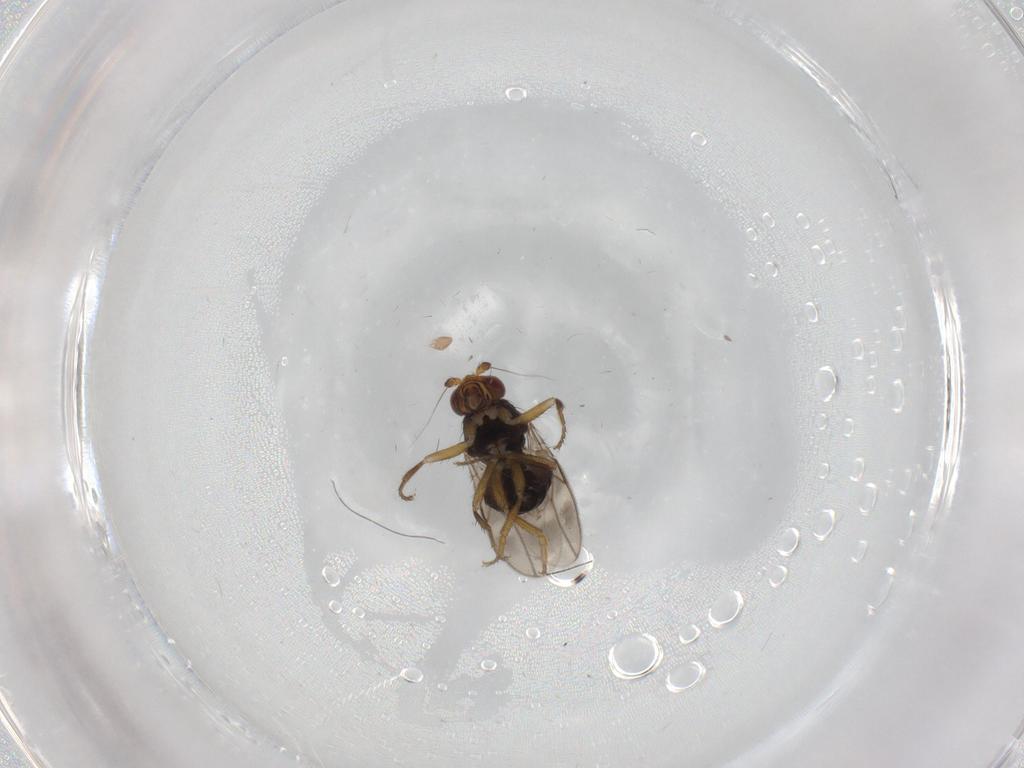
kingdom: Animalia
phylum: Arthropoda
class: Insecta
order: Diptera
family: Sphaeroceridae
